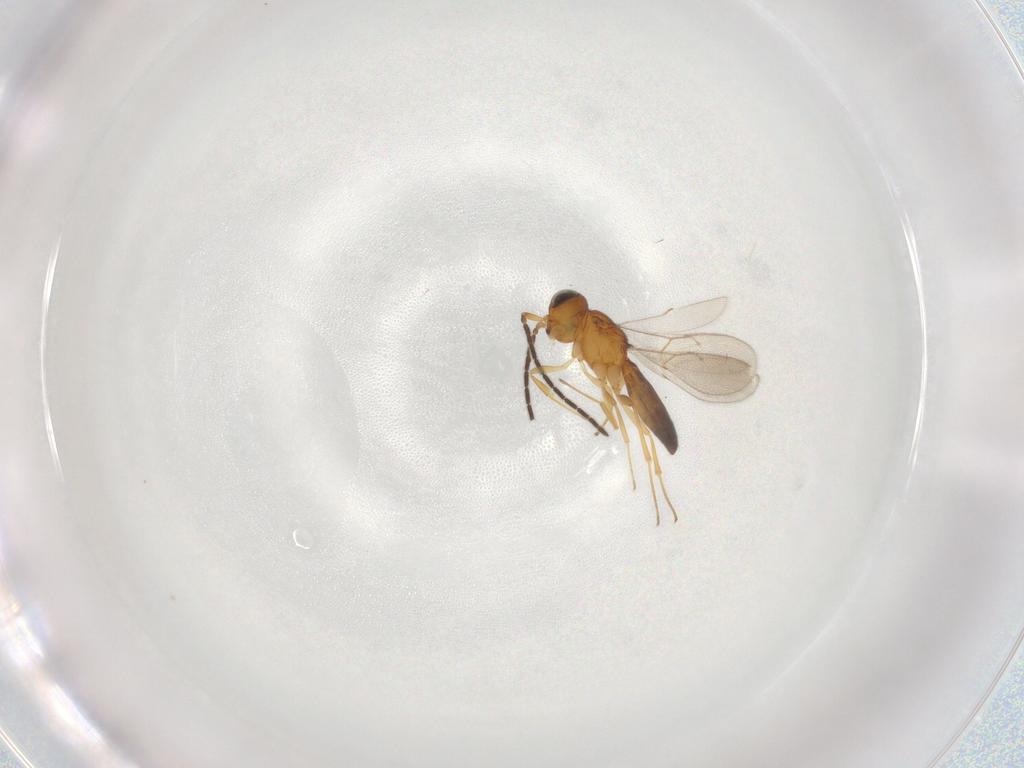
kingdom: Animalia
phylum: Arthropoda
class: Insecta
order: Hymenoptera
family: Scelionidae
